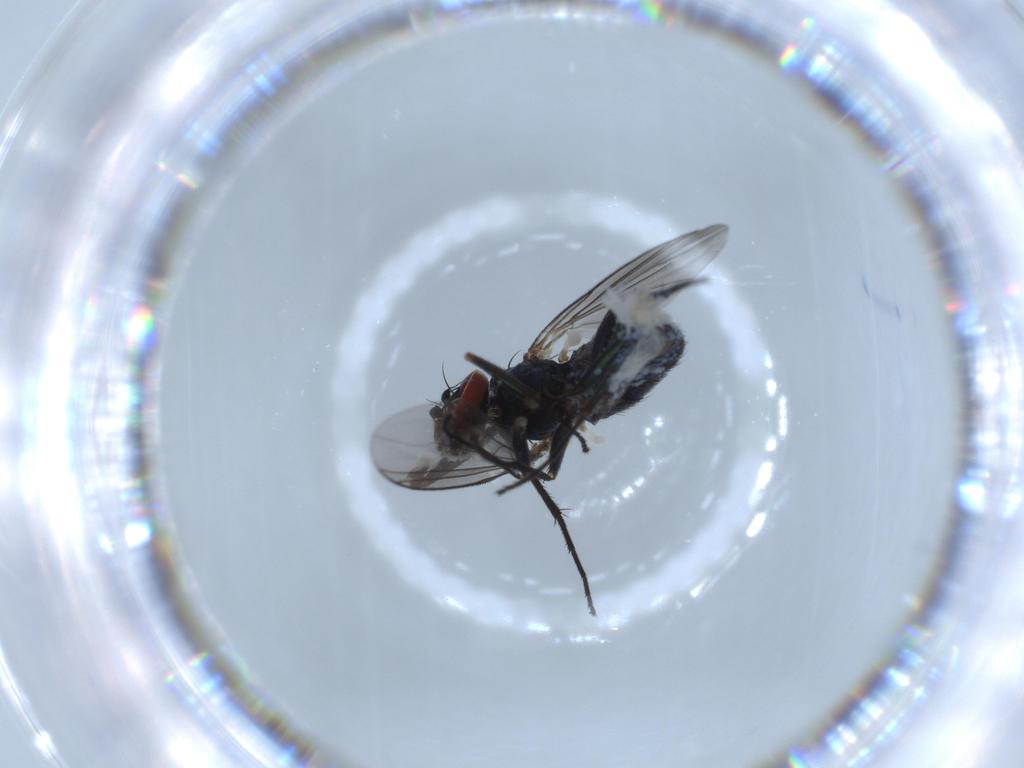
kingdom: Animalia
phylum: Arthropoda
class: Insecta
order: Diptera
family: Dolichopodidae
